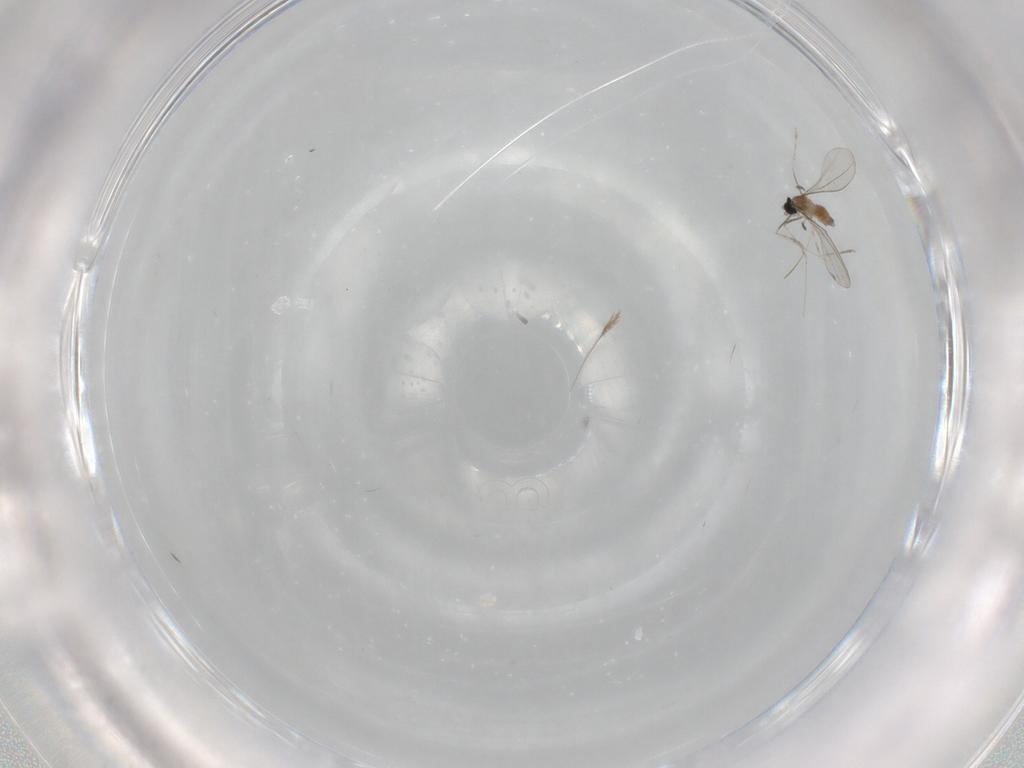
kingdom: Animalia
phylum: Arthropoda
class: Insecta
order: Diptera
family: Cecidomyiidae
